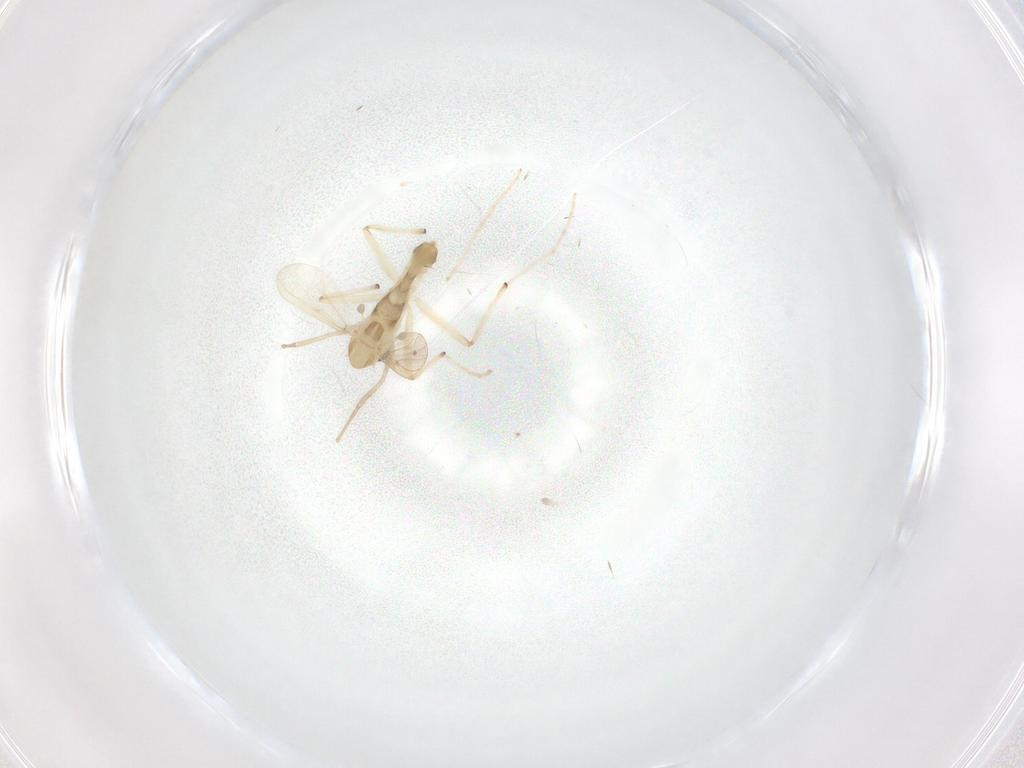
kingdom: Animalia
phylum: Arthropoda
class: Insecta
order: Diptera
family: Chironomidae
